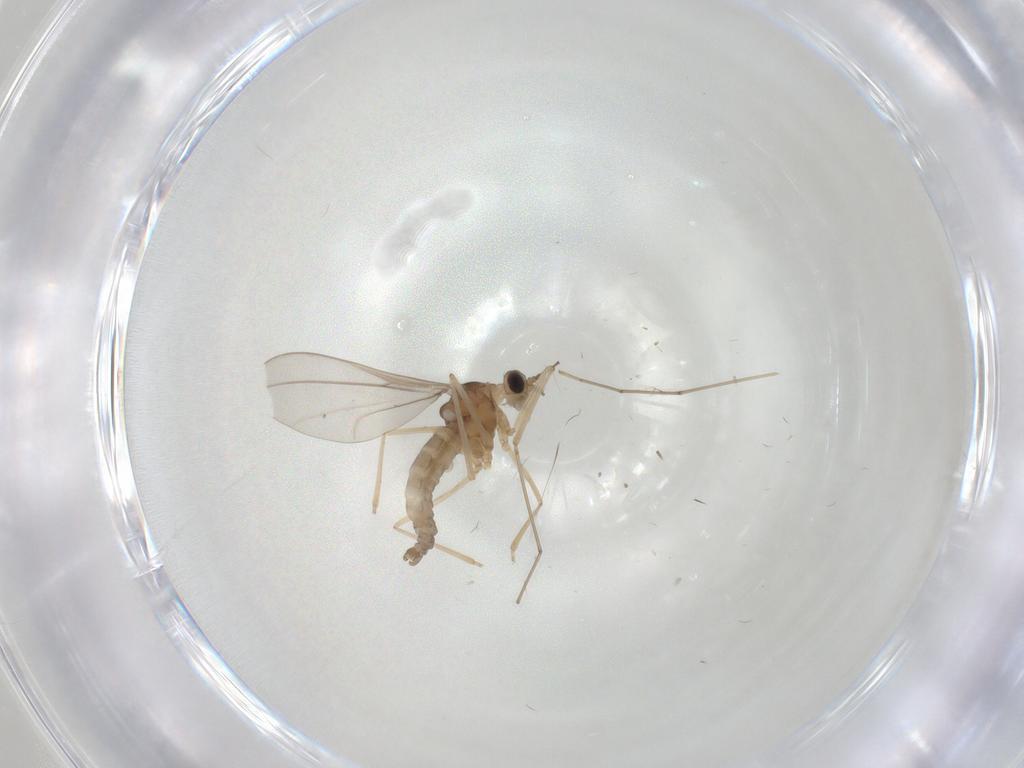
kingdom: Animalia
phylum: Arthropoda
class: Insecta
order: Diptera
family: Cecidomyiidae
